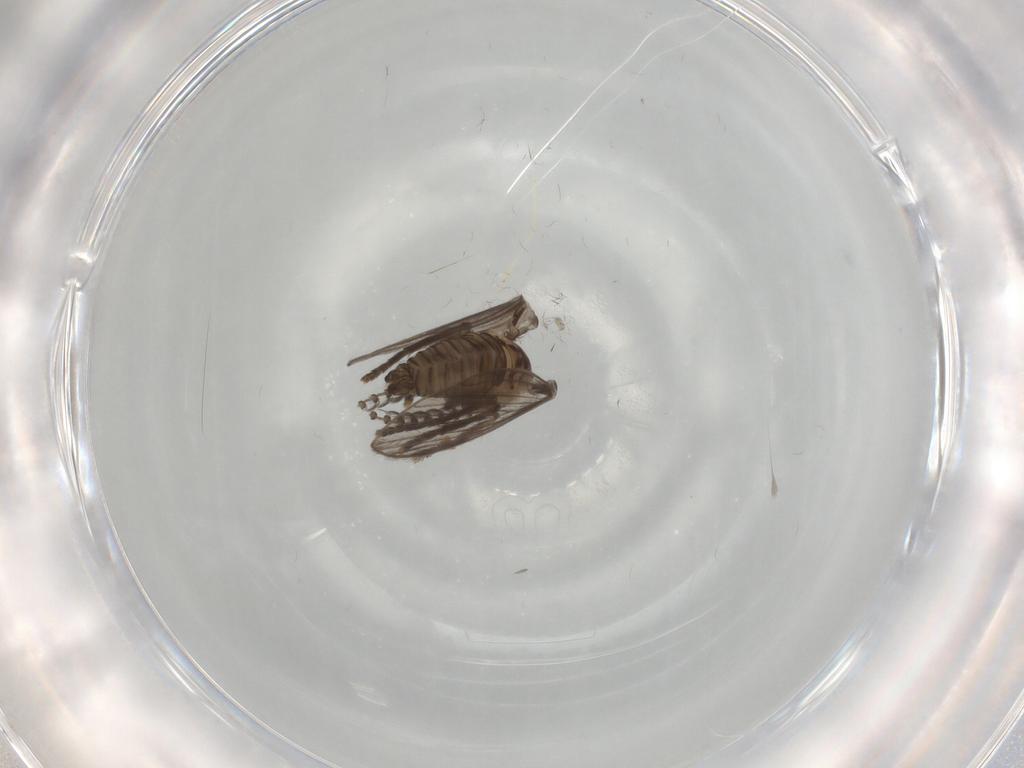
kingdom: Animalia
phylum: Arthropoda
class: Insecta
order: Diptera
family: Psychodidae
